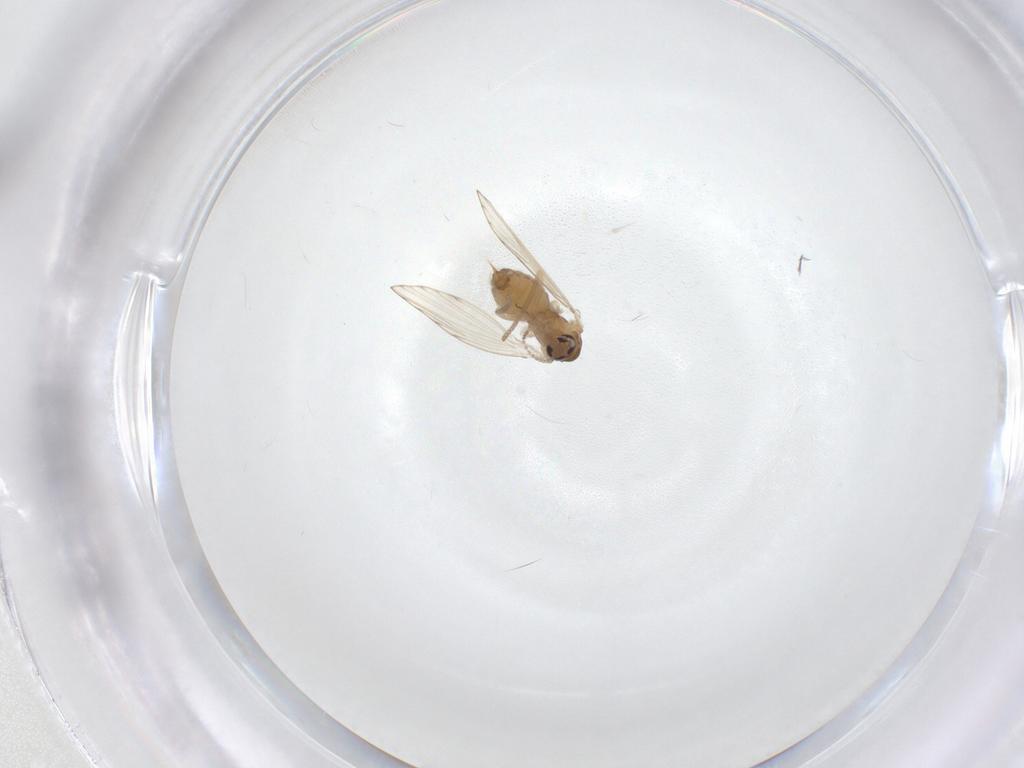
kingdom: Animalia
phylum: Arthropoda
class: Insecta
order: Diptera
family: Psychodidae
